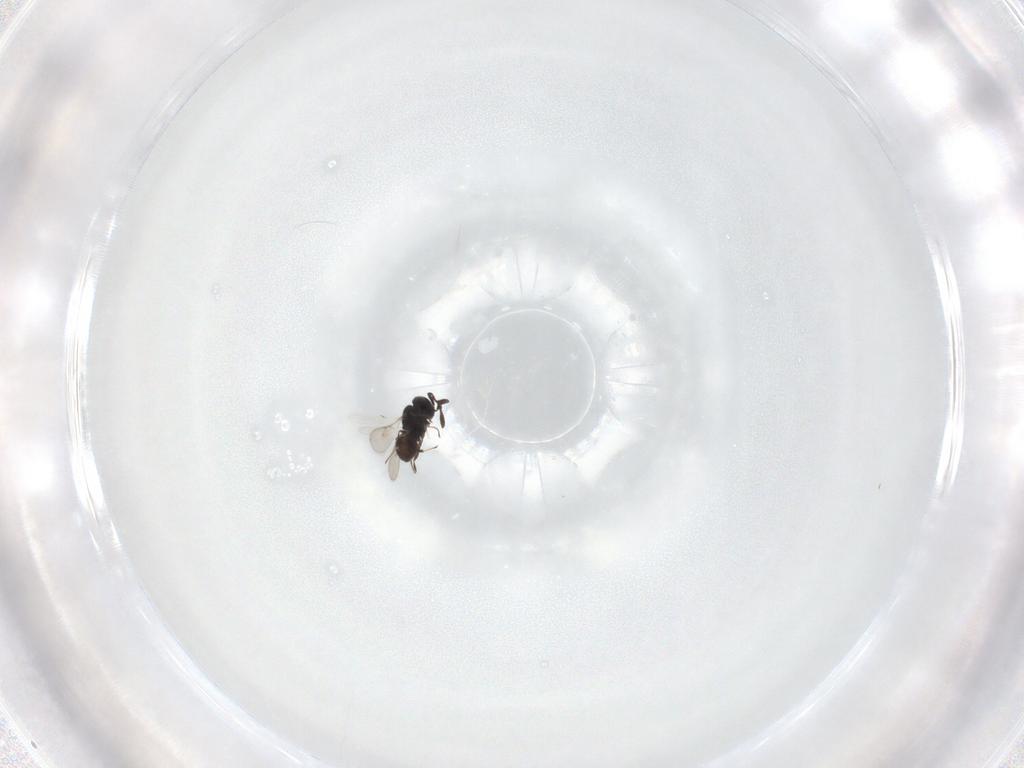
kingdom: Animalia
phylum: Arthropoda
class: Insecta
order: Hymenoptera
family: Scelionidae
